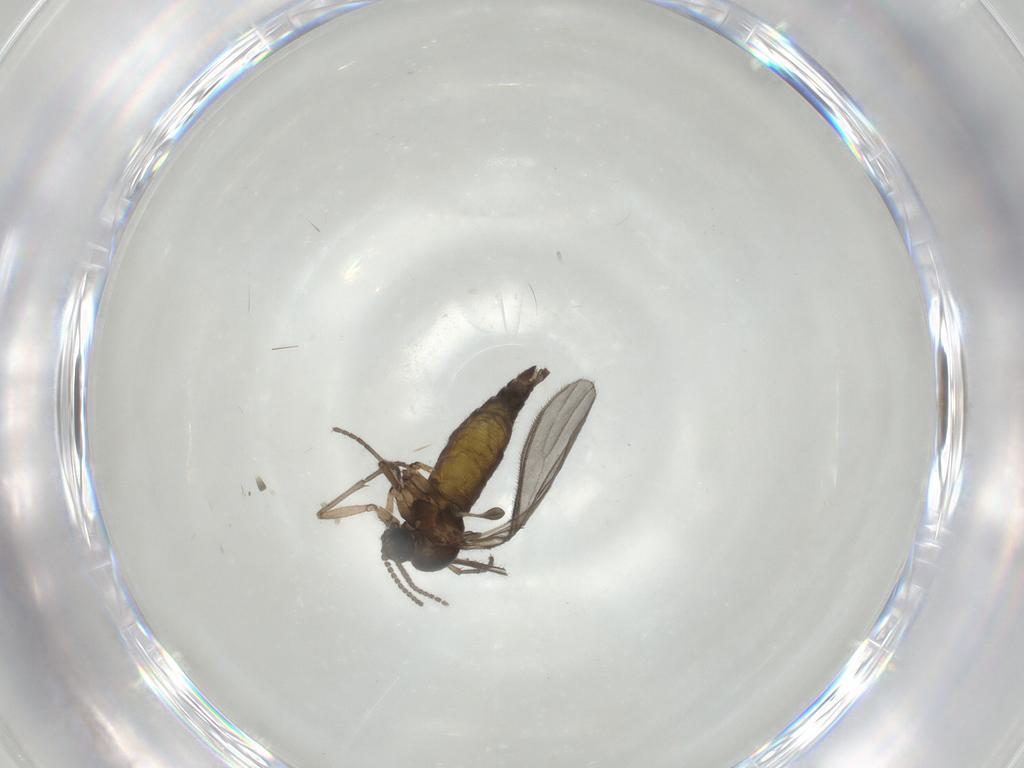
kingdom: Animalia
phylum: Arthropoda
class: Insecta
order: Diptera
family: Sciaridae
